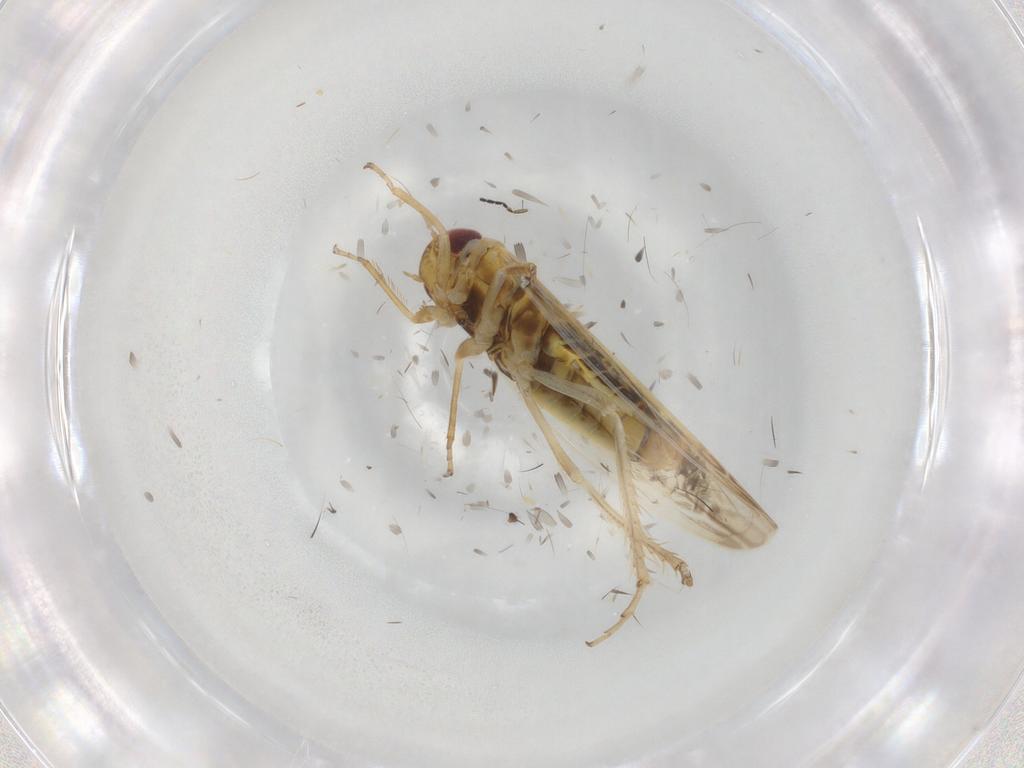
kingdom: Animalia
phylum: Arthropoda
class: Insecta
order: Hemiptera
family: Cicadellidae
